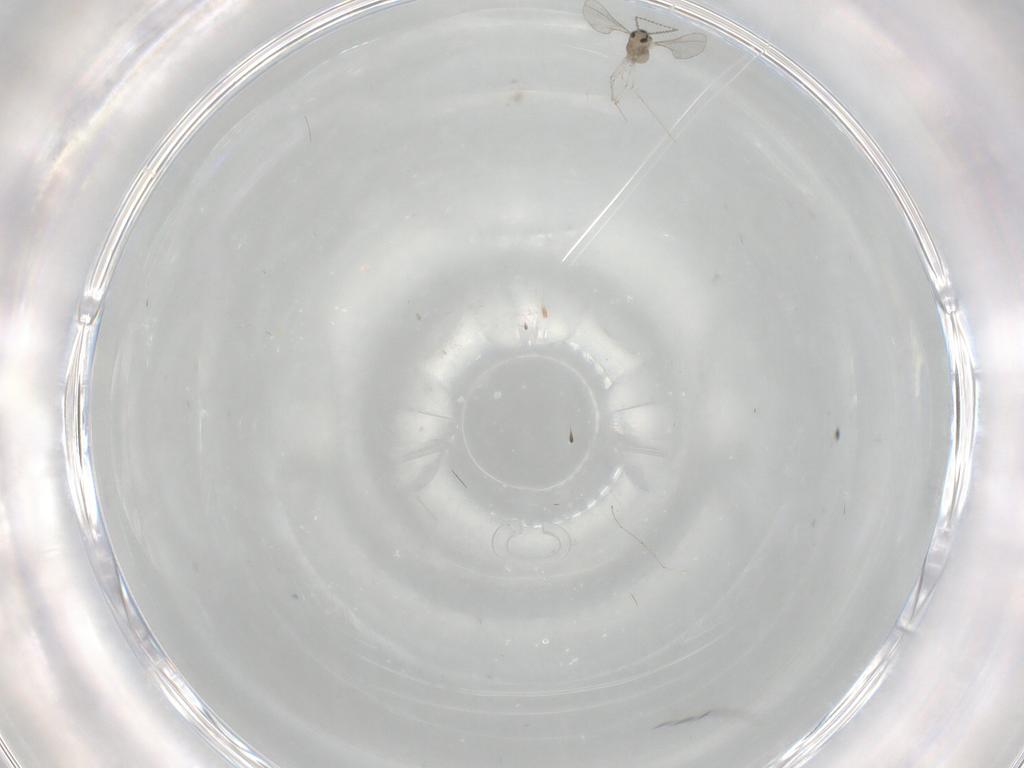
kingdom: Animalia
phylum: Arthropoda
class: Insecta
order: Diptera
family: Cecidomyiidae
